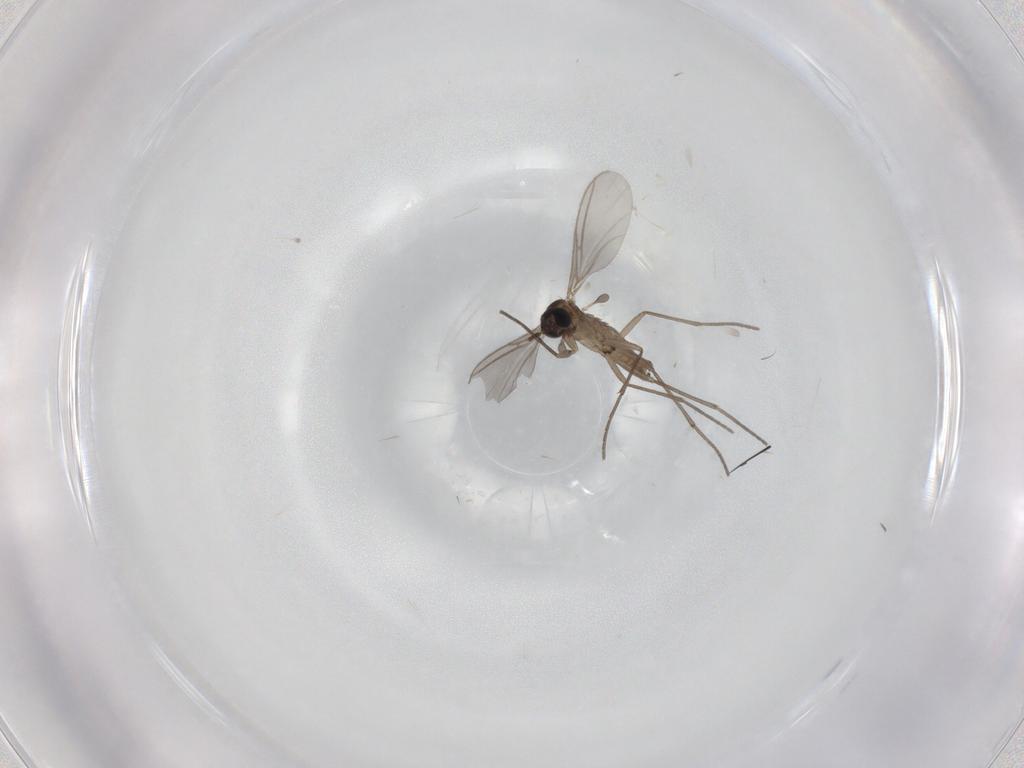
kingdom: Animalia
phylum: Arthropoda
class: Insecta
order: Diptera
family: Sciaridae
